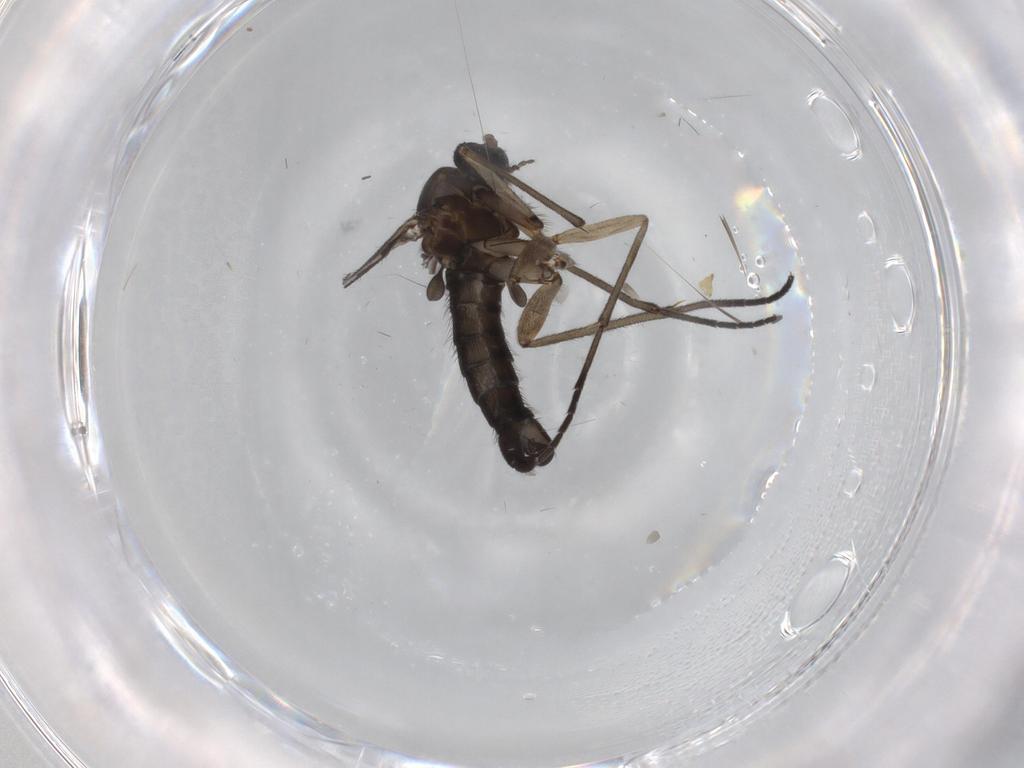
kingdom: Animalia
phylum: Arthropoda
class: Insecta
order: Diptera
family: Sciaridae
